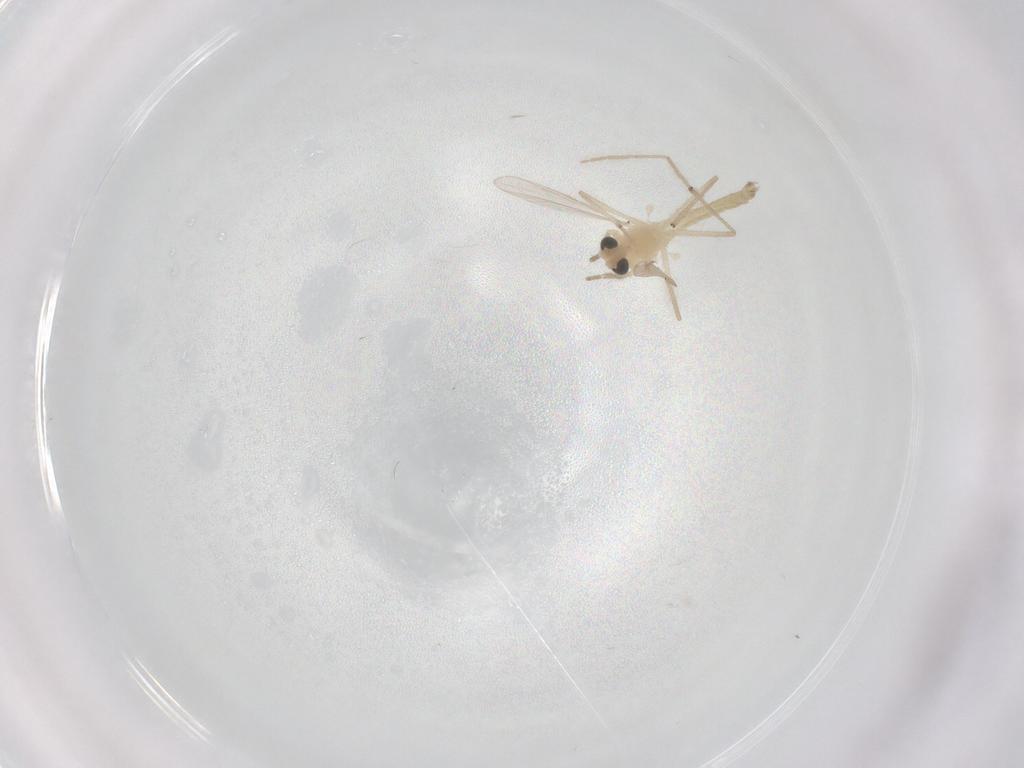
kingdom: Animalia
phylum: Arthropoda
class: Insecta
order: Diptera
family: Chironomidae
